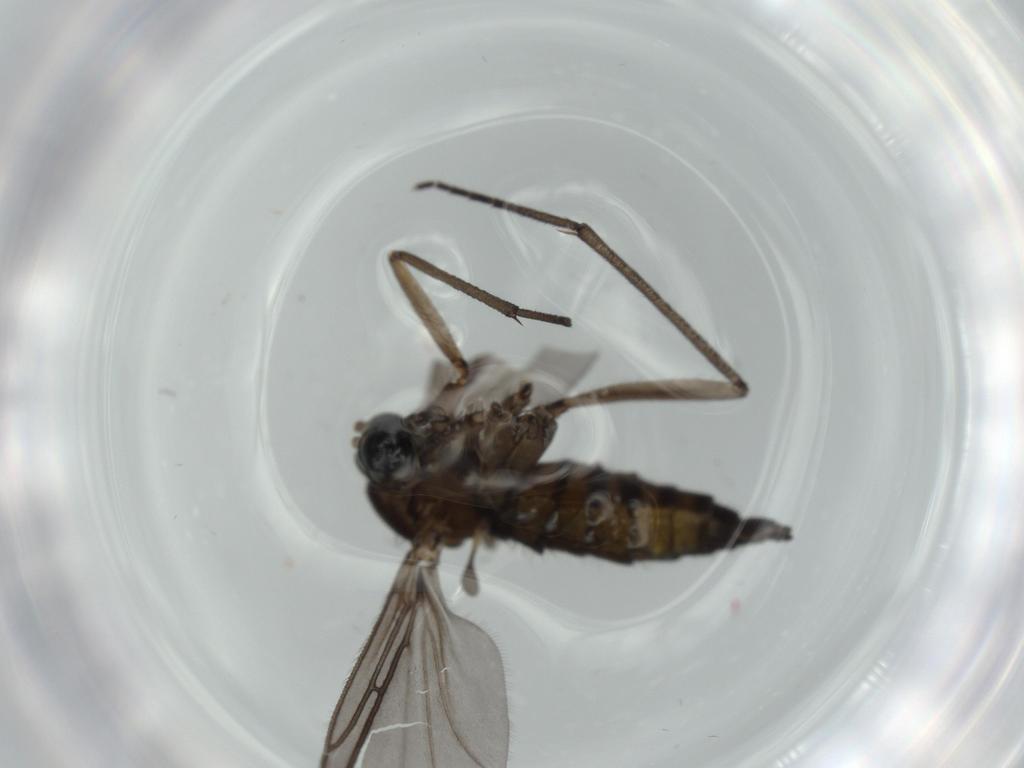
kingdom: Animalia
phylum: Arthropoda
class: Insecta
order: Diptera
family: Sciaridae
